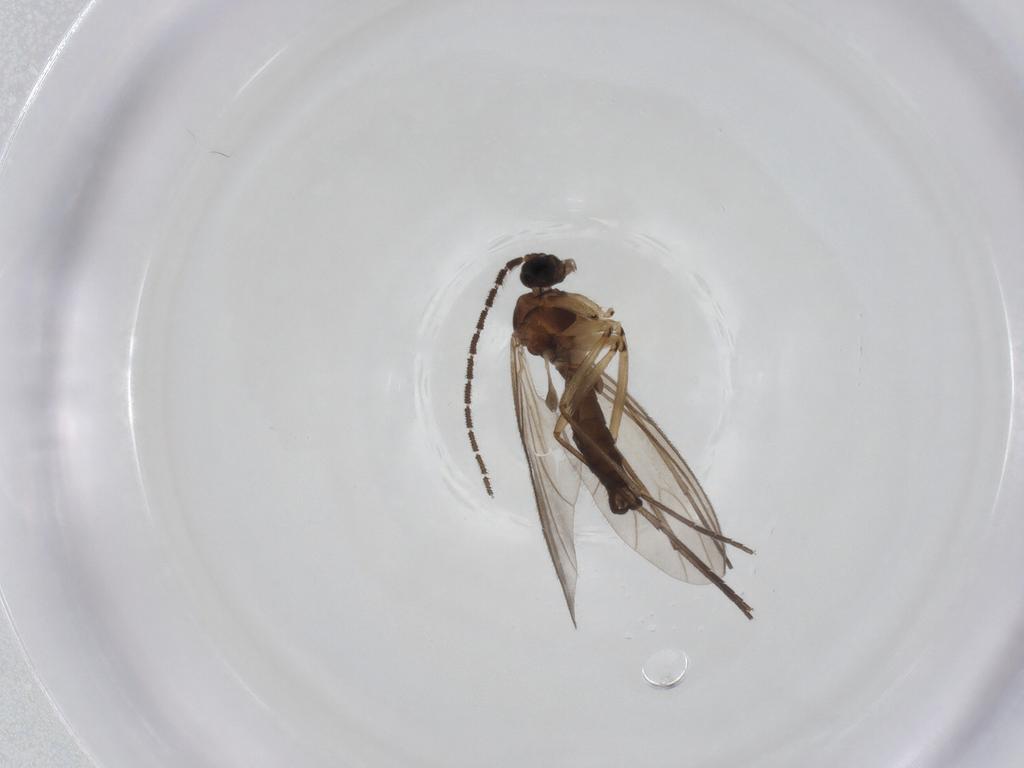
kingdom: Animalia
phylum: Arthropoda
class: Insecta
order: Diptera
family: Sciaridae
